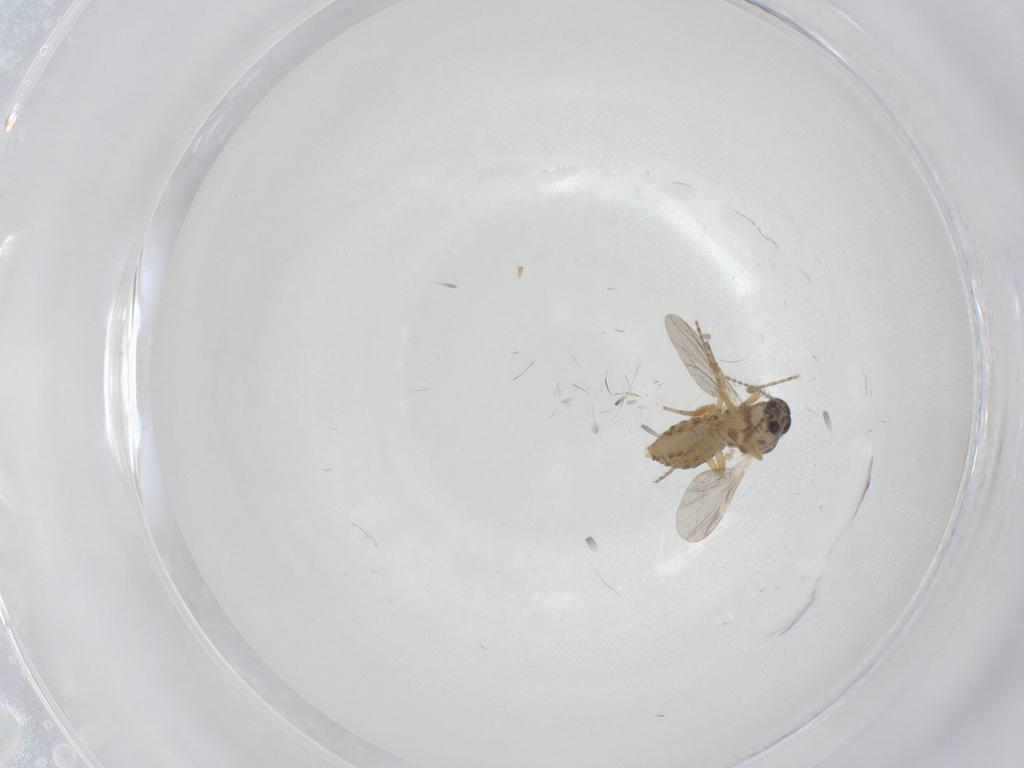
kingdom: Animalia
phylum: Arthropoda
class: Insecta
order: Diptera
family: Ceratopogonidae
